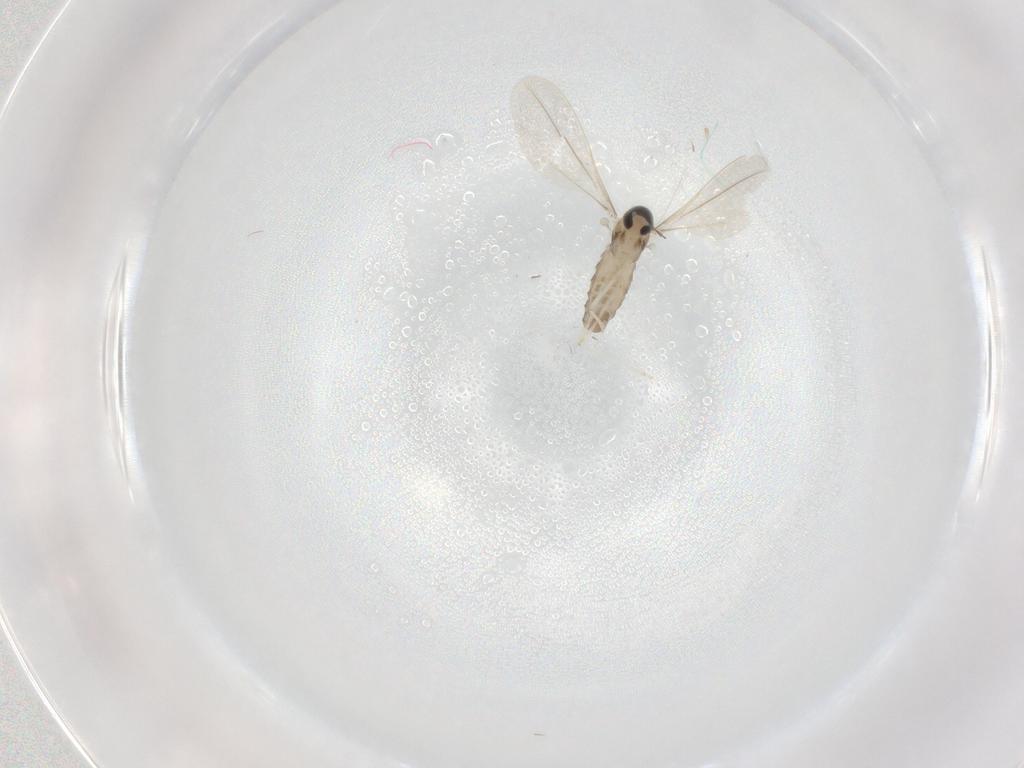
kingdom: Animalia
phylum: Arthropoda
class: Insecta
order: Diptera
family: Cecidomyiidae
